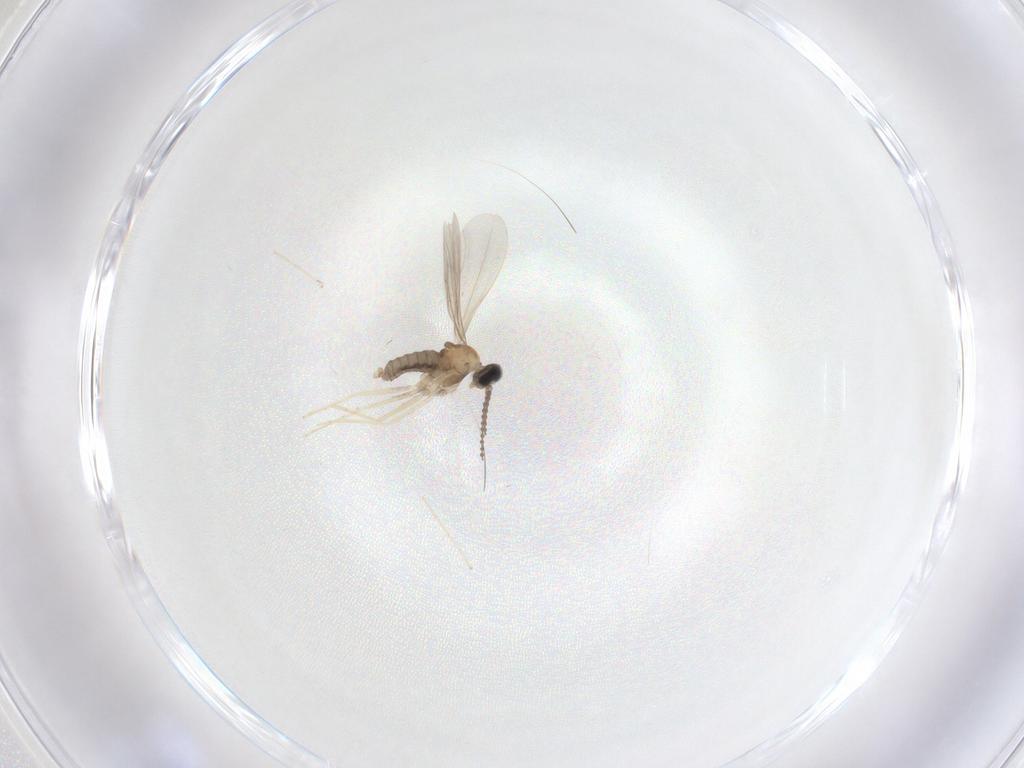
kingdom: Animalia
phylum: Arthropoda
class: Insecta
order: Diptera
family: Cecidomyiidae
